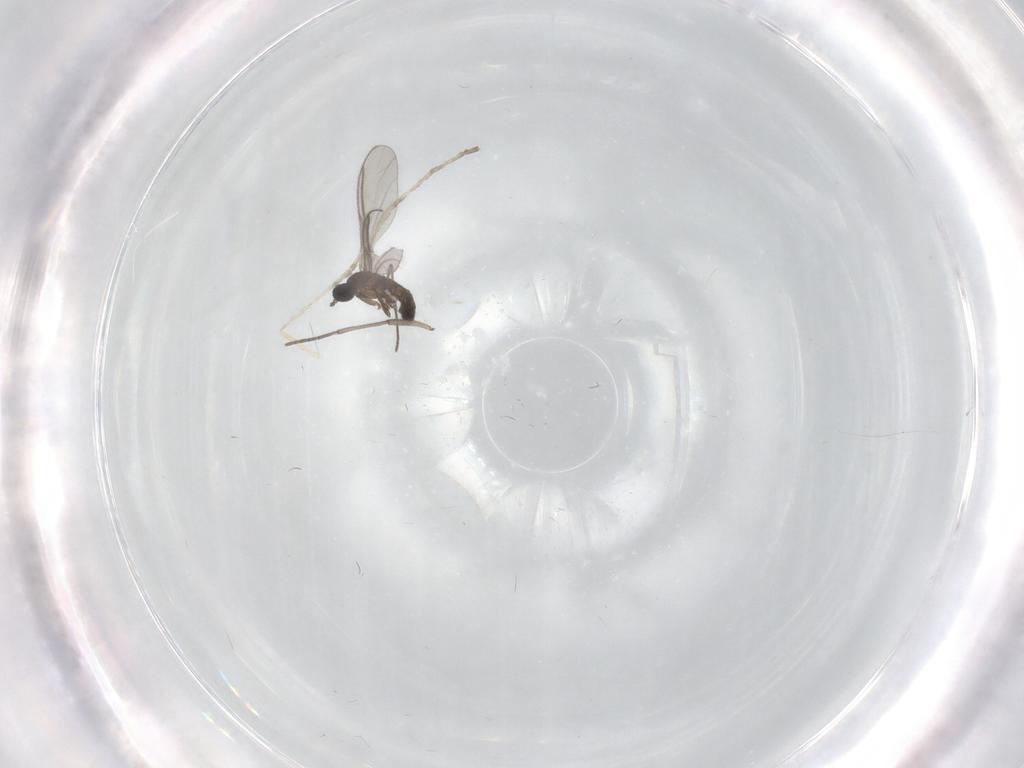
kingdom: Animalia
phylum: Arthropoda
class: Insecta
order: Diptera
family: Sciaridae
